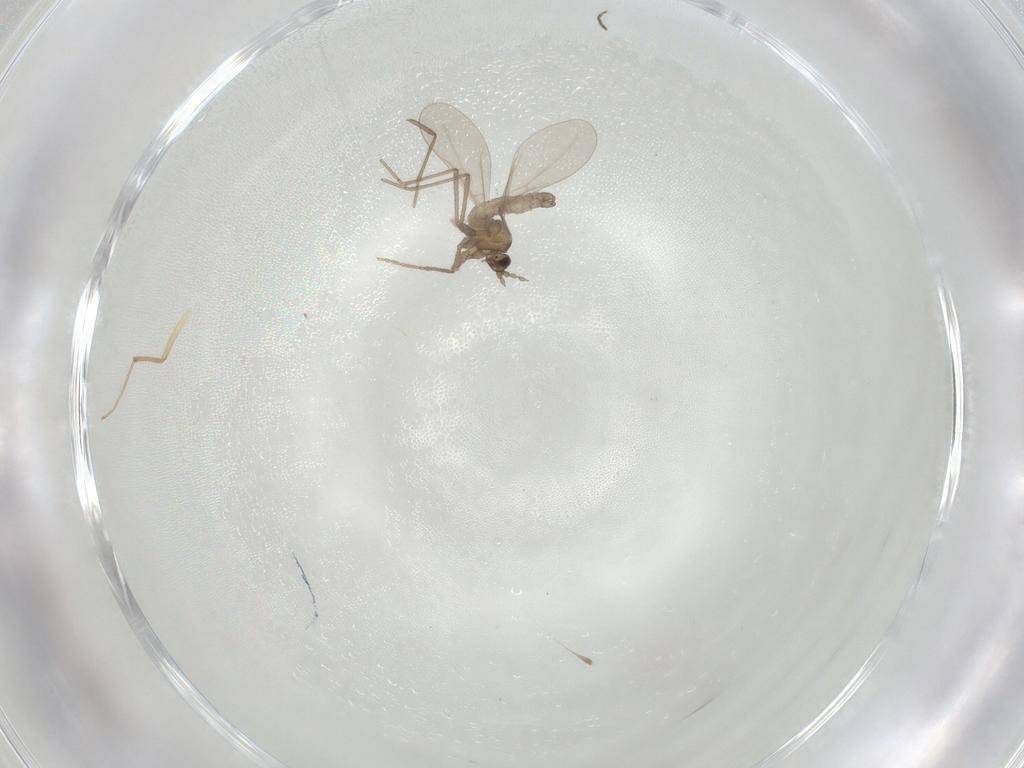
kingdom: Animalia
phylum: Arthropoda
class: Insecta
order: Diptera
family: Cecidomyiidae
